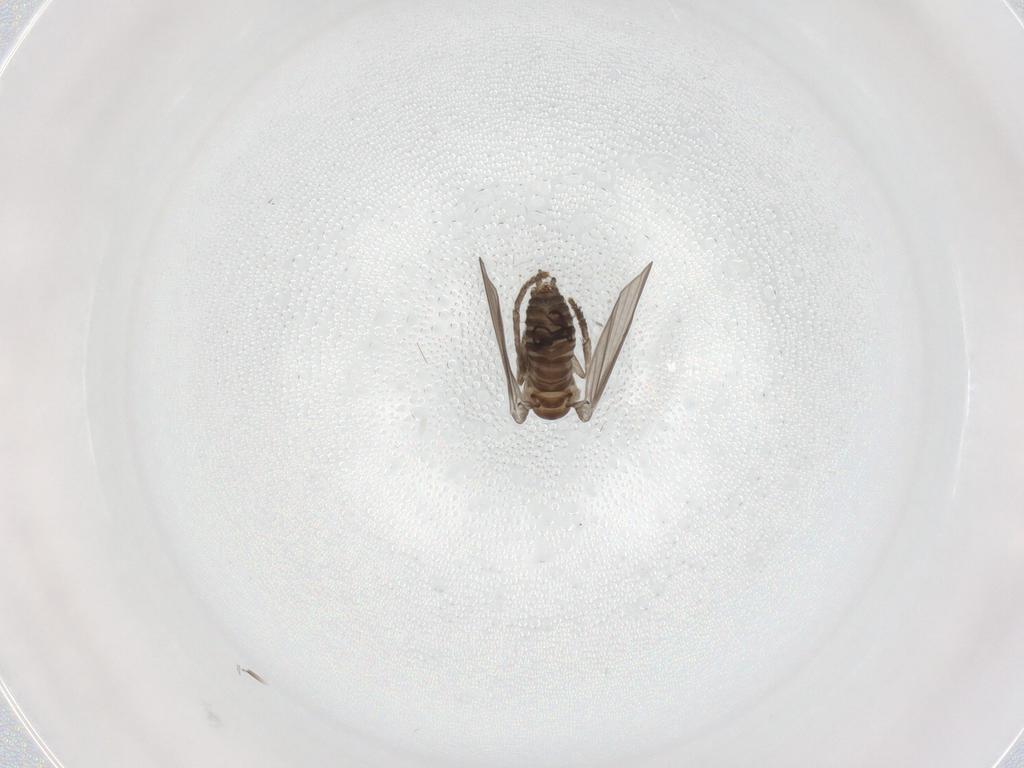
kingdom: Animalia
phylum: Arthropoda
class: Insecta
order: Diptera
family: Psychodidae
